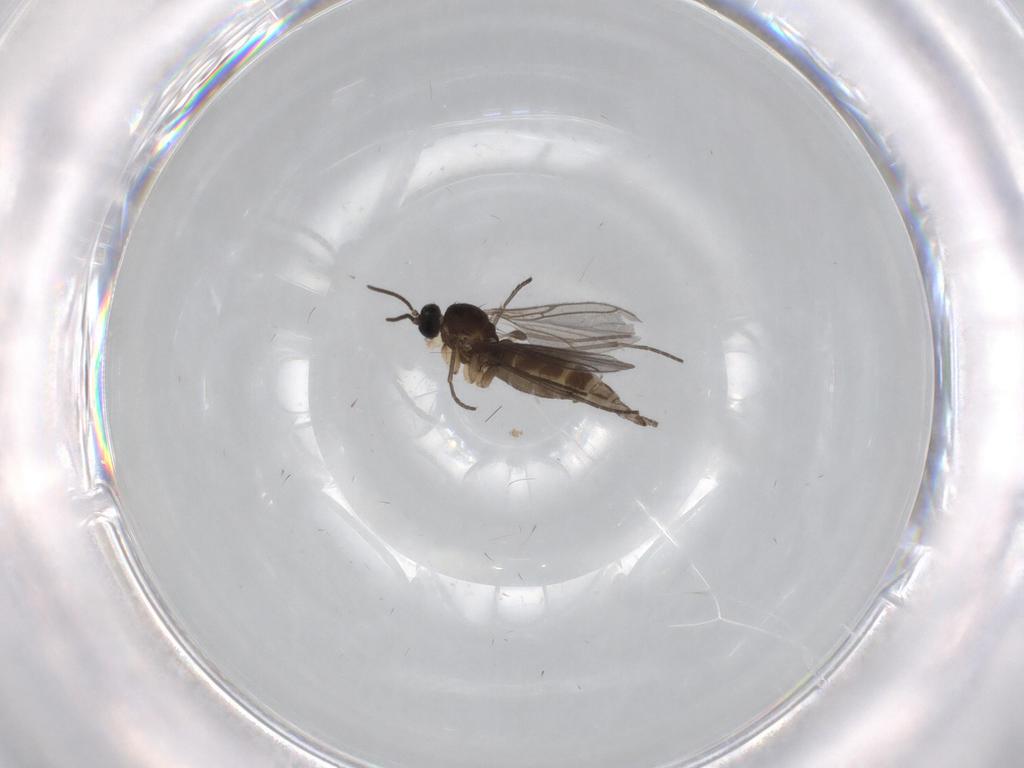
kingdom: Animalia
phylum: Arthropoda
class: Insecta
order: Diptera
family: Sciaridae
